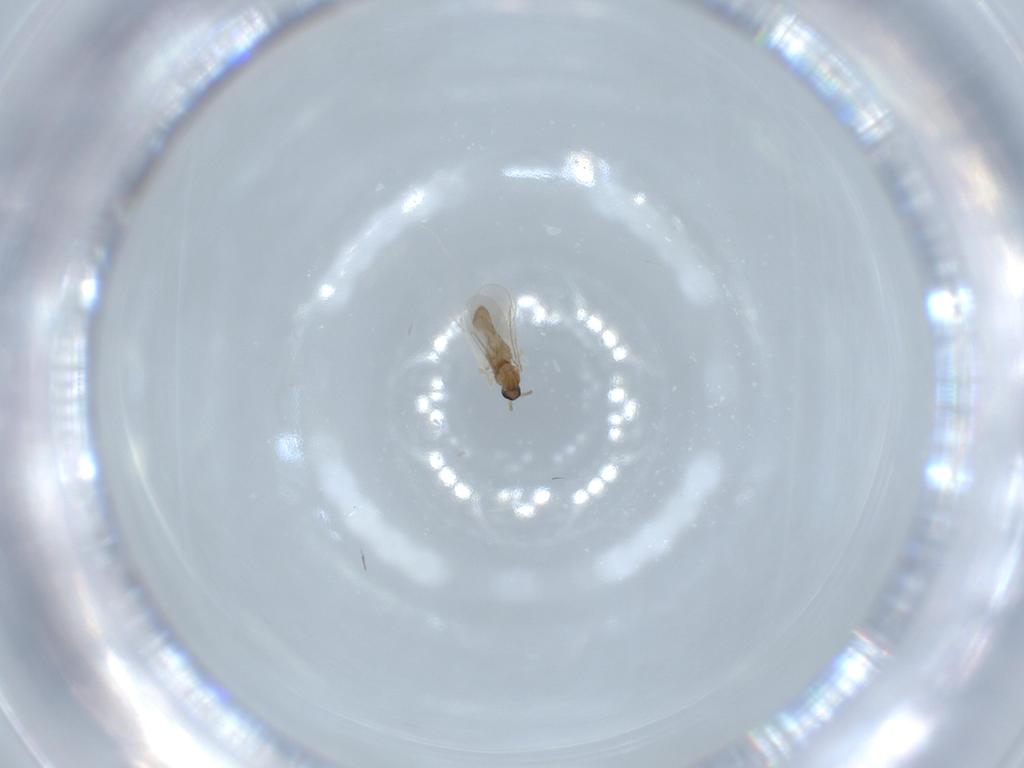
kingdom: Animalia
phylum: Arthropoda
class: Insecta
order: Diptera
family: Cecidomyiidae
